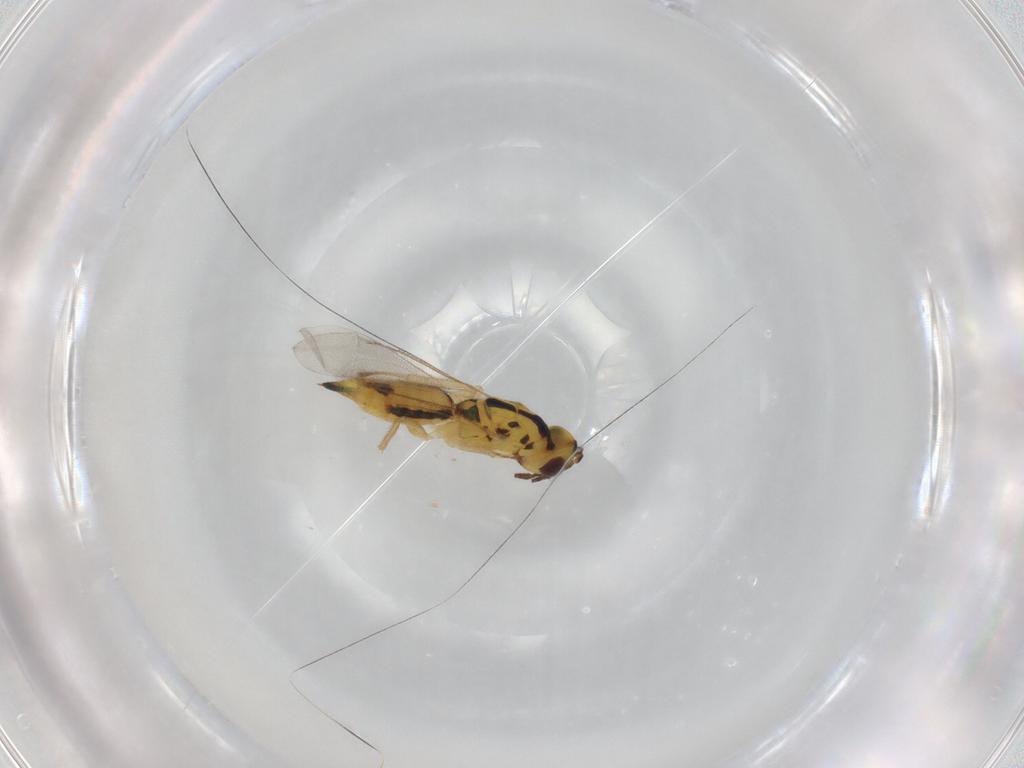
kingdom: Animalia
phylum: Arthropoda
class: Insecta
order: Hymenoptera
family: Eulophidae
